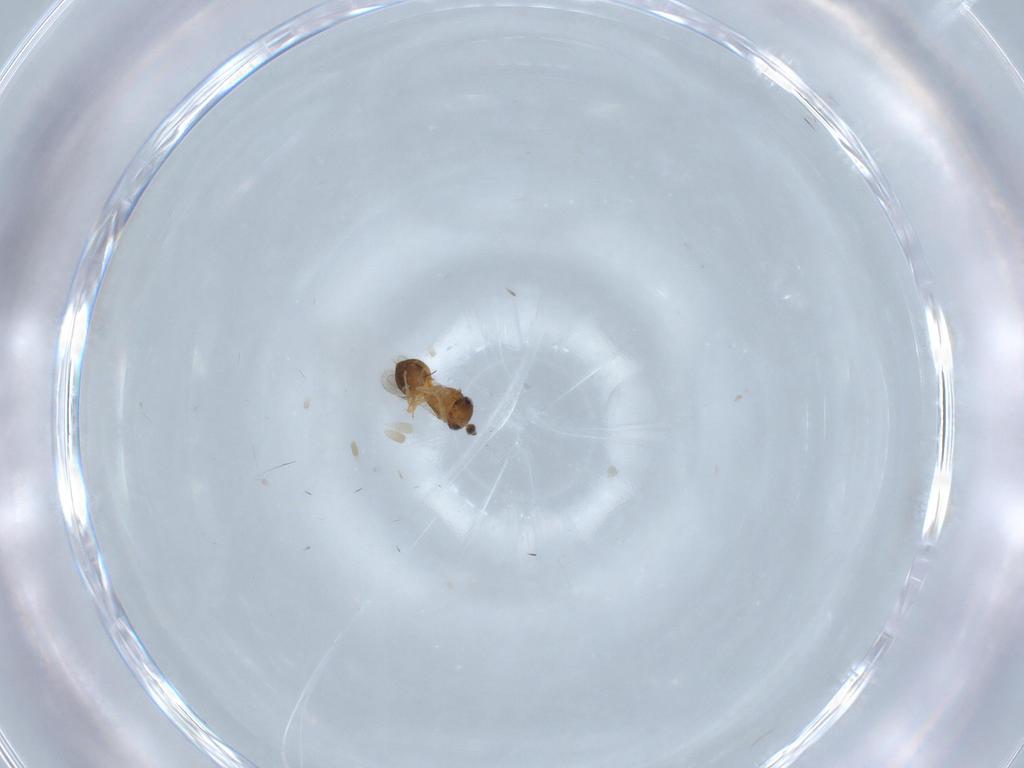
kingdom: Animalia
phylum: Arthropoda
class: Insecta
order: Hymenoptera
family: Scelionidae
